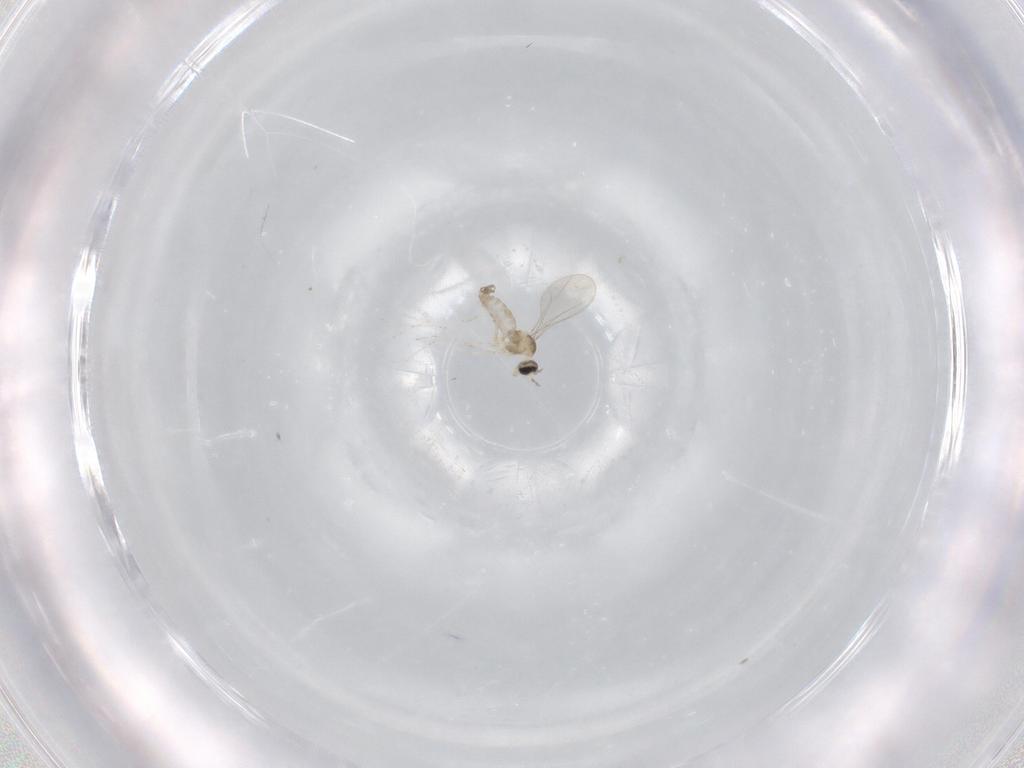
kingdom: Animalia
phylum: Arthropoda
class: Insecta
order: Diptera
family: Cecidomyiidae
